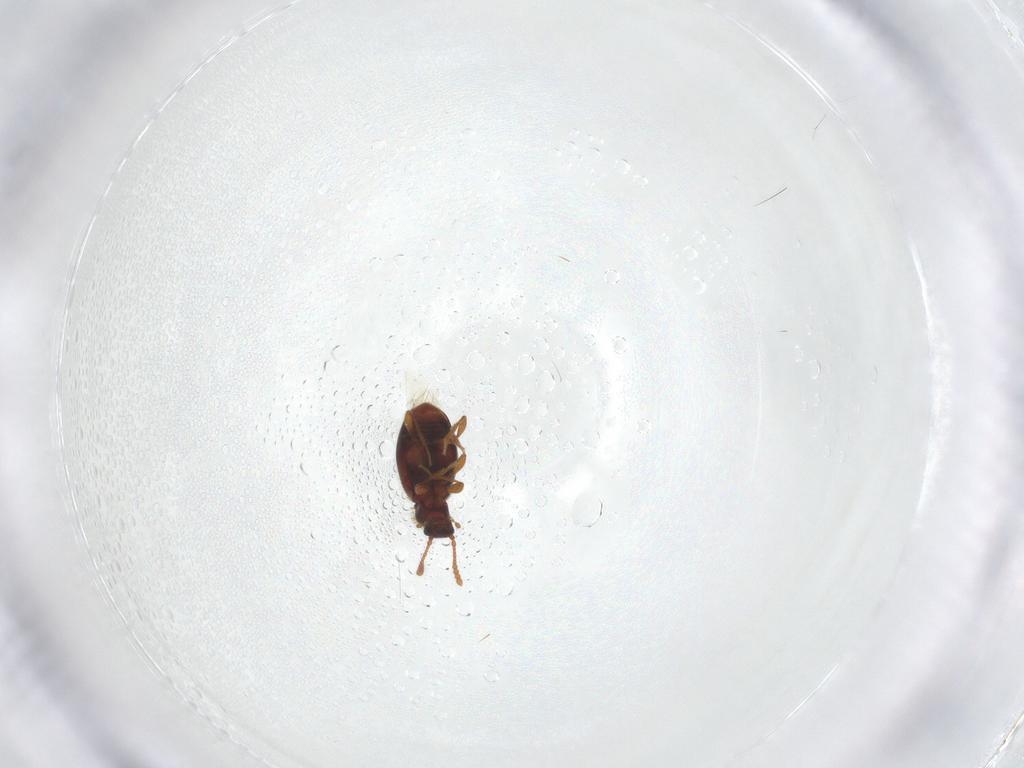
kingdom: Animalia
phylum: Arthropoda
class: Insecta
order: Coleoptera
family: Staphylinidae
